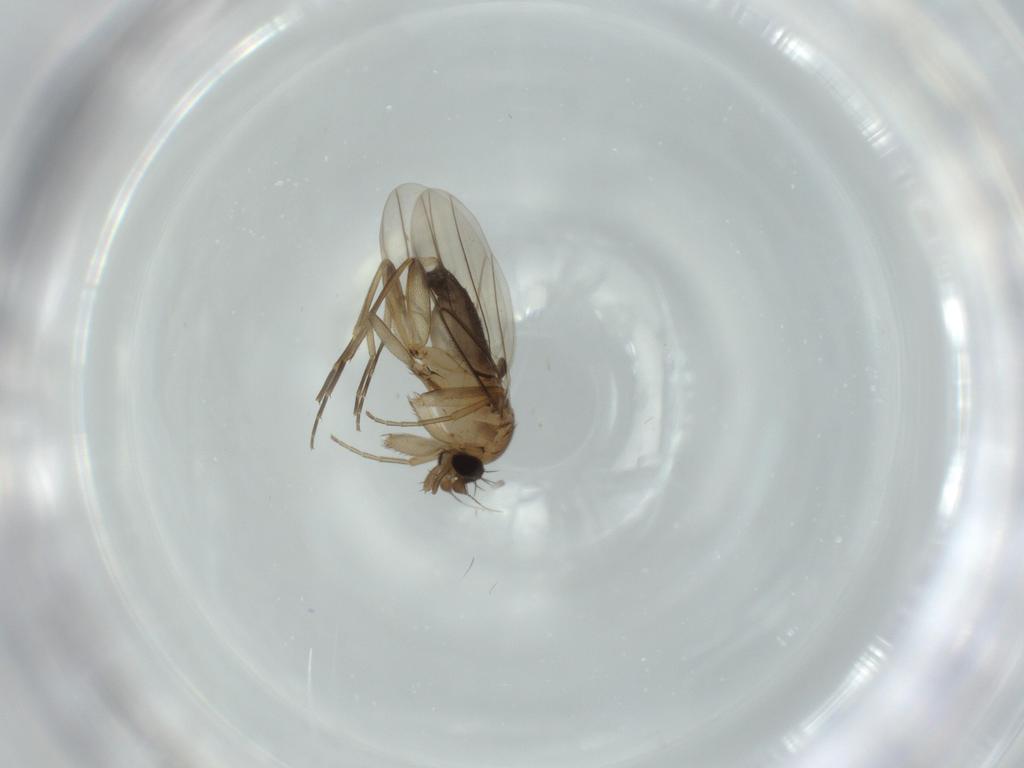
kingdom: Animalia
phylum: Arthropoda
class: Insecta
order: Diptera
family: Phoridae
